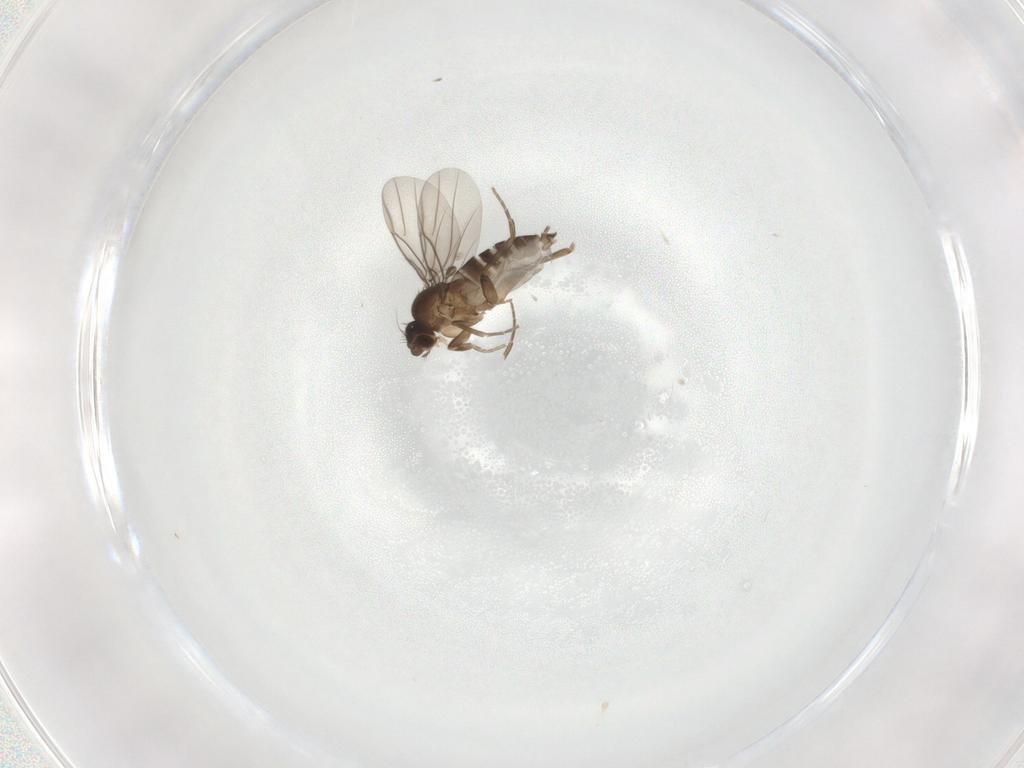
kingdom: Animalia
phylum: Arthropoda
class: Insecta
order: Diptera
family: Phoridae
